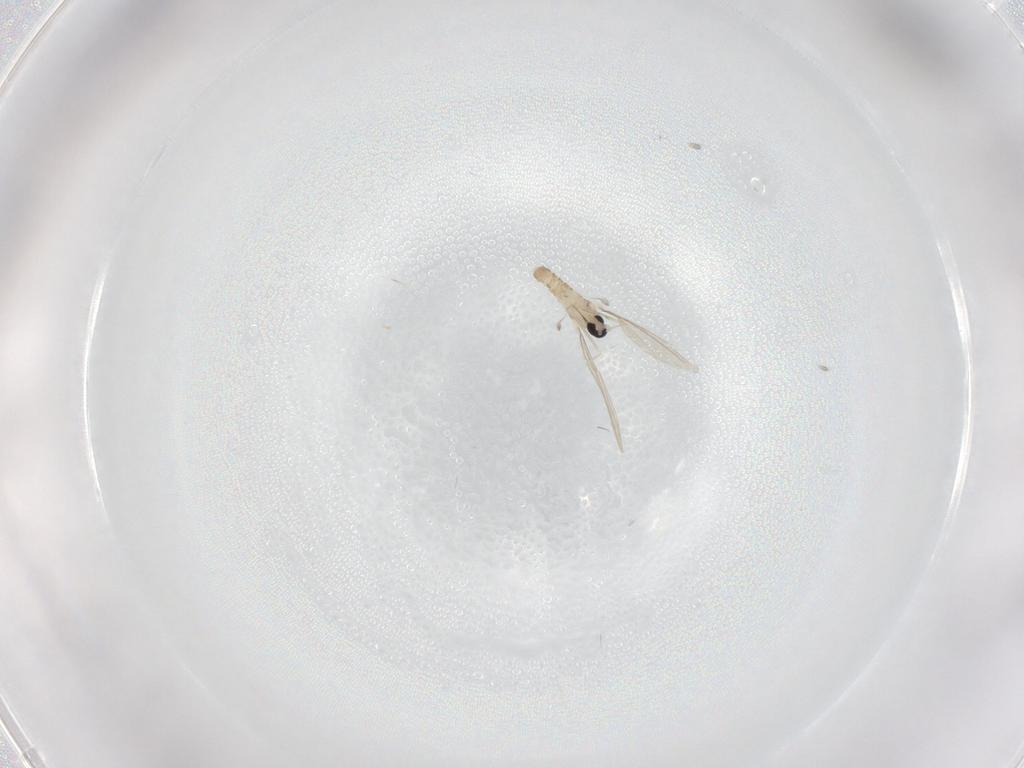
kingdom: Animalia
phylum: Arthropoda
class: Insecta
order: Diptera
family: Cecidomyiidae
